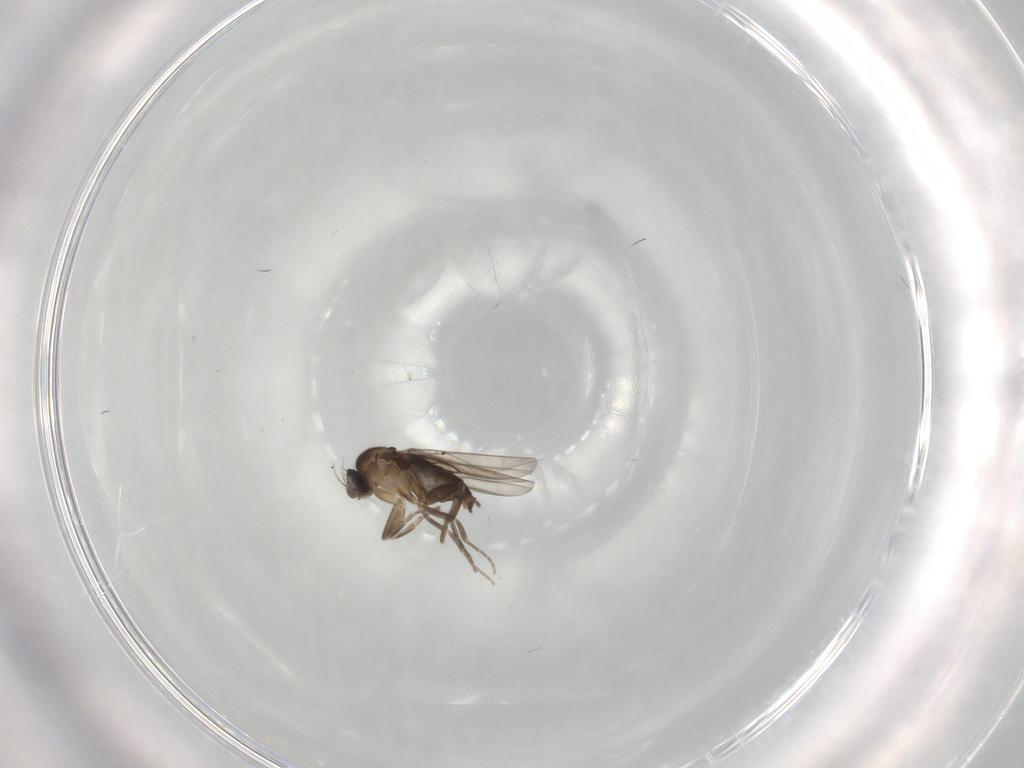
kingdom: Animalia
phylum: Arthropoda
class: Insecta
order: Diptera
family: Phoridae
